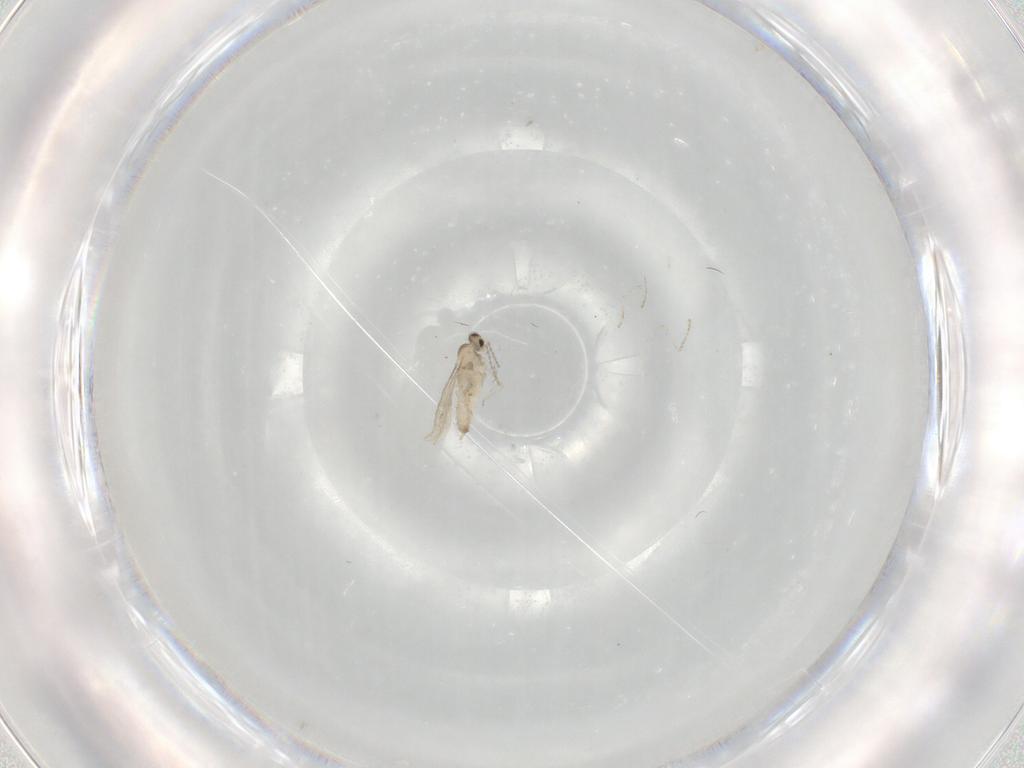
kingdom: Animalia
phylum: Arthropoda
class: Insecta
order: Diptera
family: Cecidomyiidae
